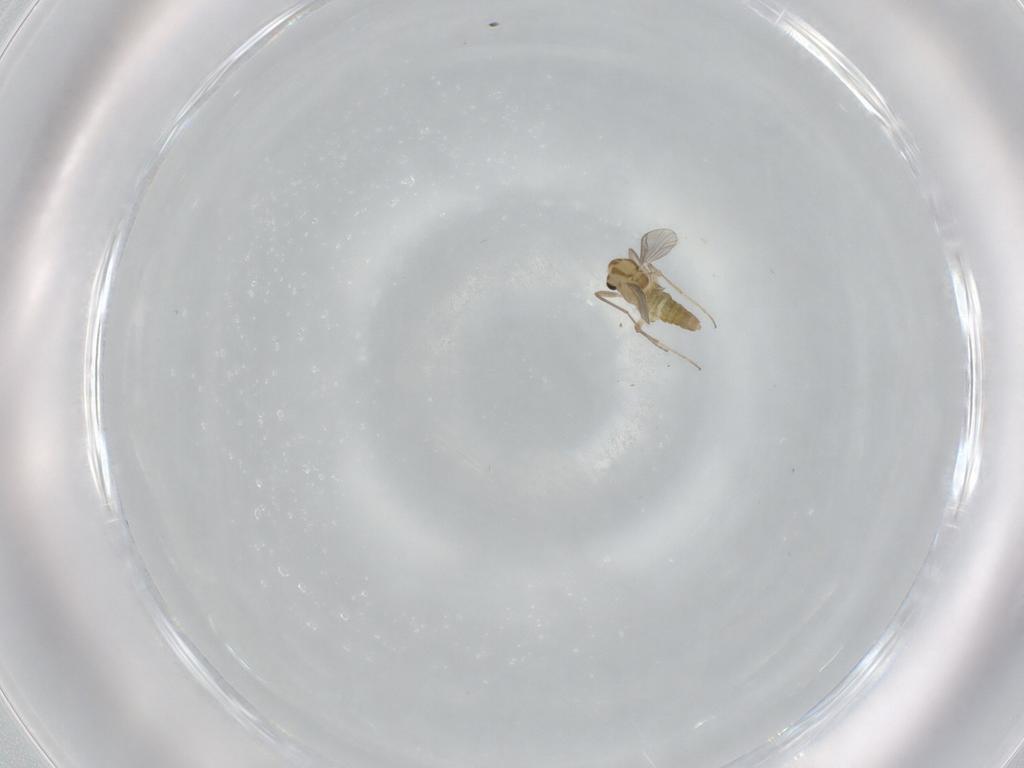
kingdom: Animalia
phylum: Arthropoda
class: Insecta
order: Diptera
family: Chironomidae
